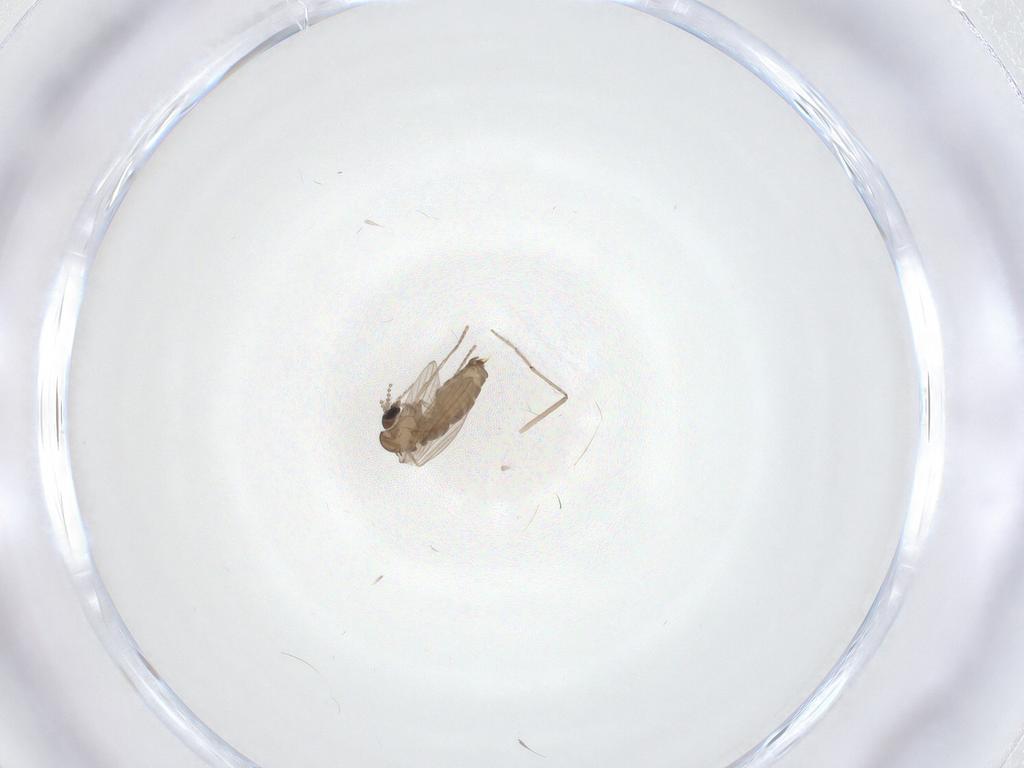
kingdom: Animalia
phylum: Arthropoda
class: Insecta
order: Diptera
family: Psychodidae
